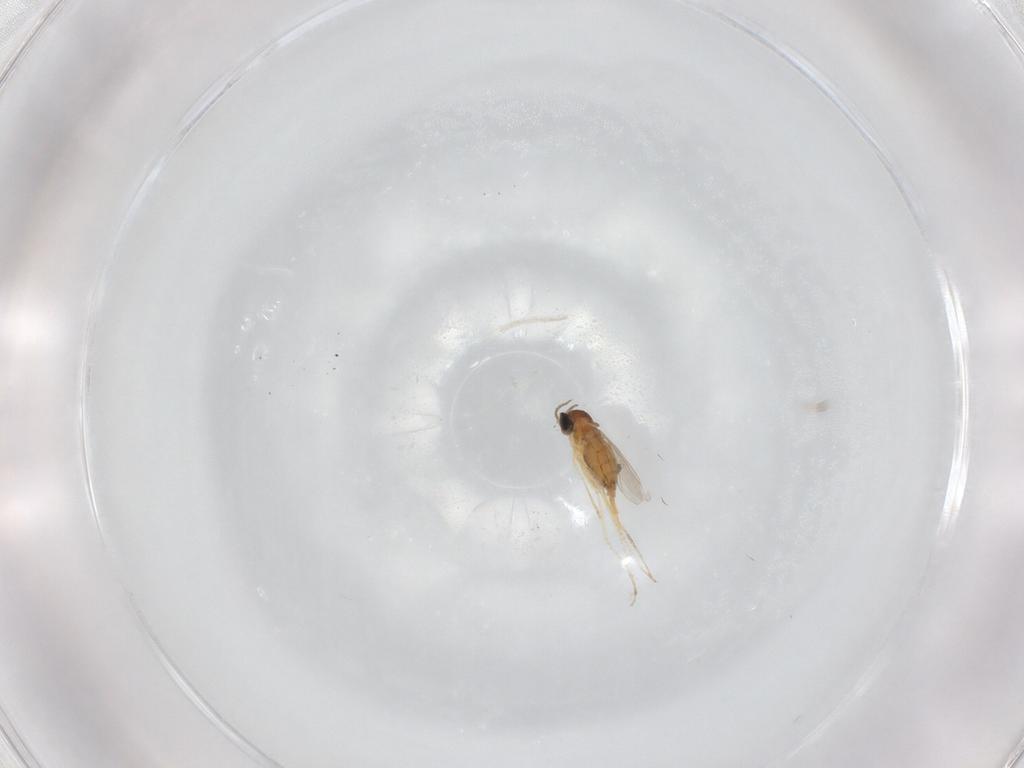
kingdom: Animalia
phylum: Arthropoda
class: Insecta
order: Diptera
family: Cecidomyiidae
